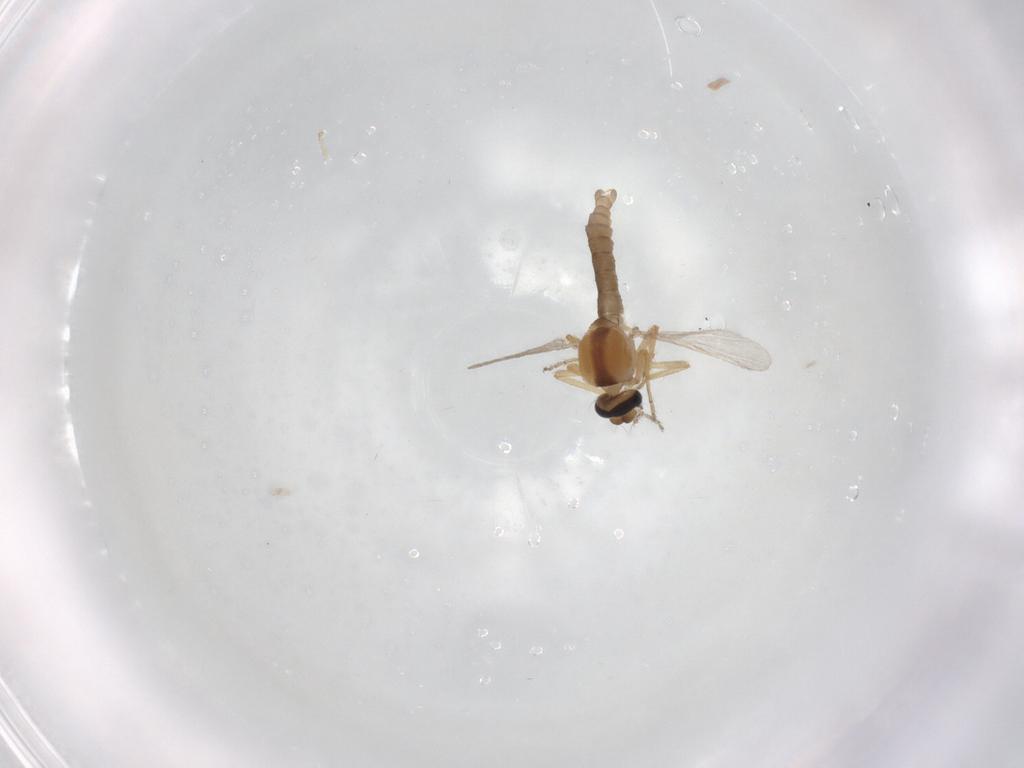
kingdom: Animalia
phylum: Arthropoda
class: Insecta
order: Diptera
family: Ceratopogonidae
